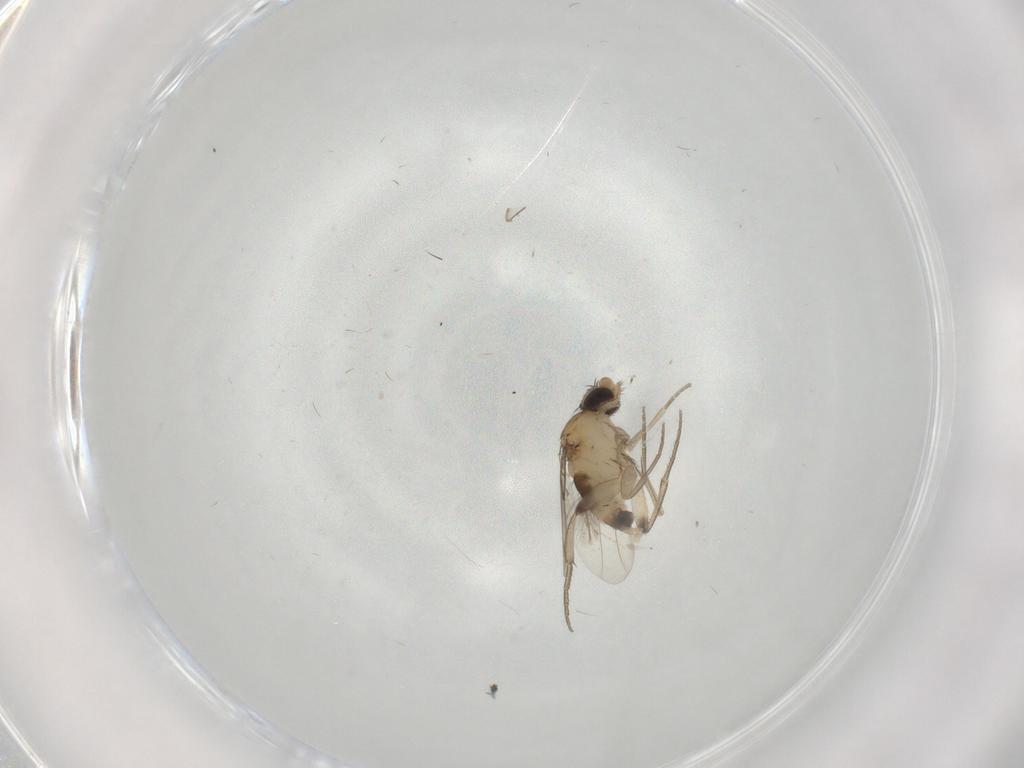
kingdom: Animalia
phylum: Arthropoda
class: Insecta
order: Diptera
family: Phoridae
